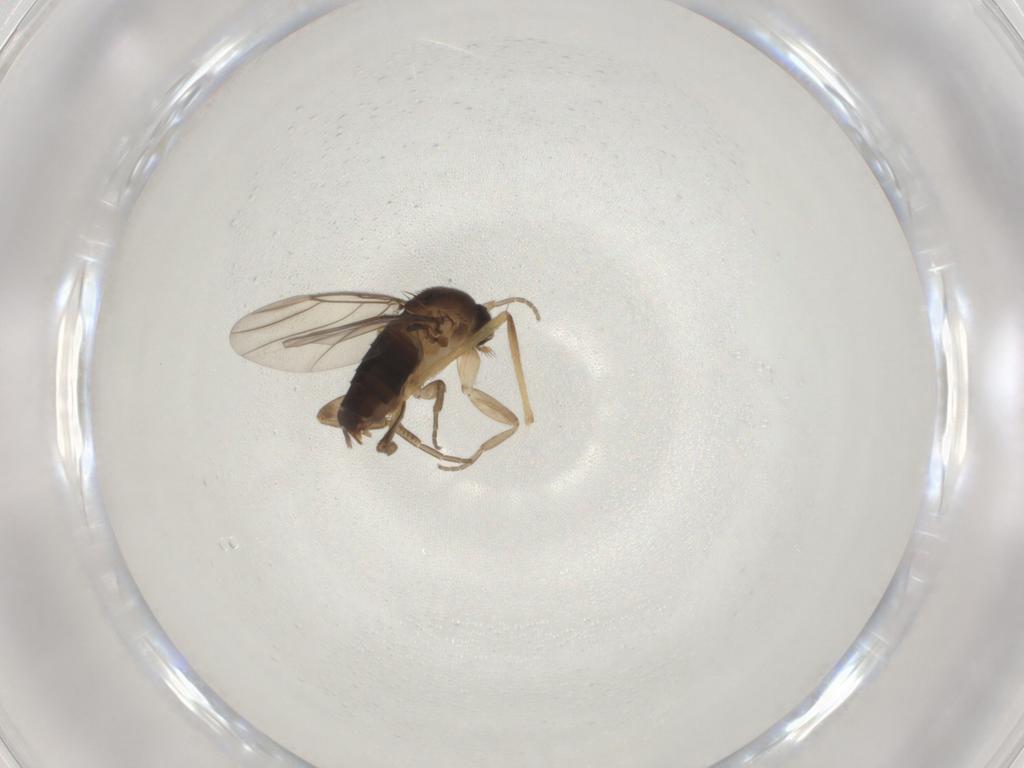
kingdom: Animalia
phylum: Arthropoda
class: Insecta
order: Diptera
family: Phoridae
